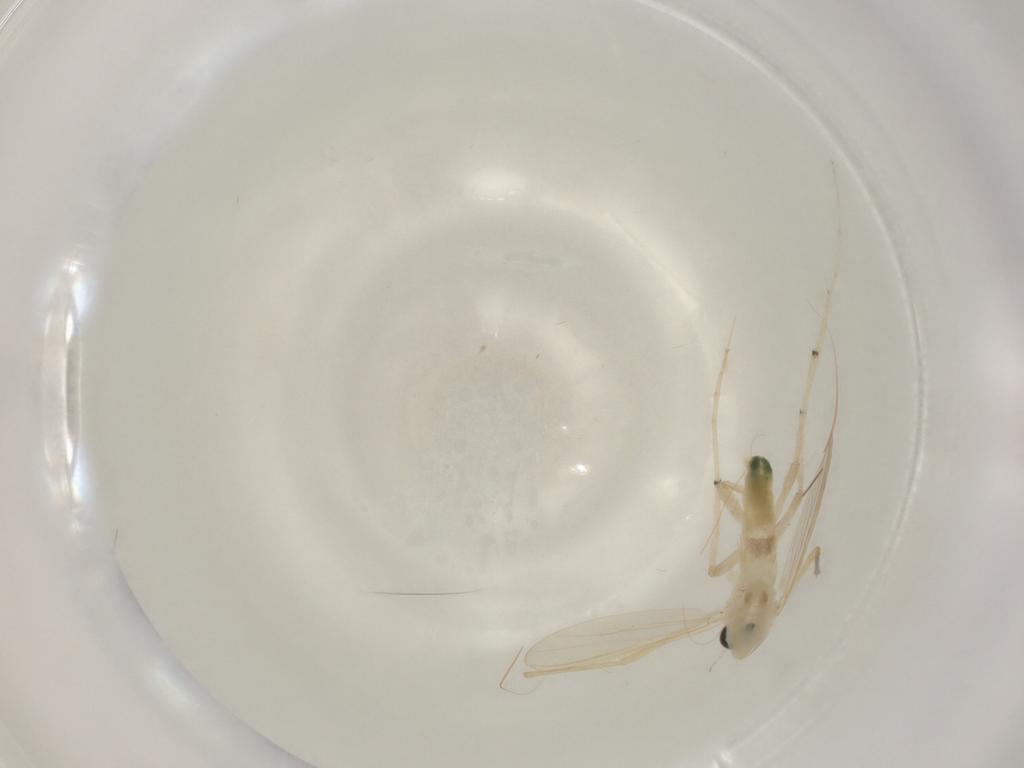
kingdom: Animalia
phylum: Arthropoda
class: Insecta
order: Diptera
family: Chironomidae
